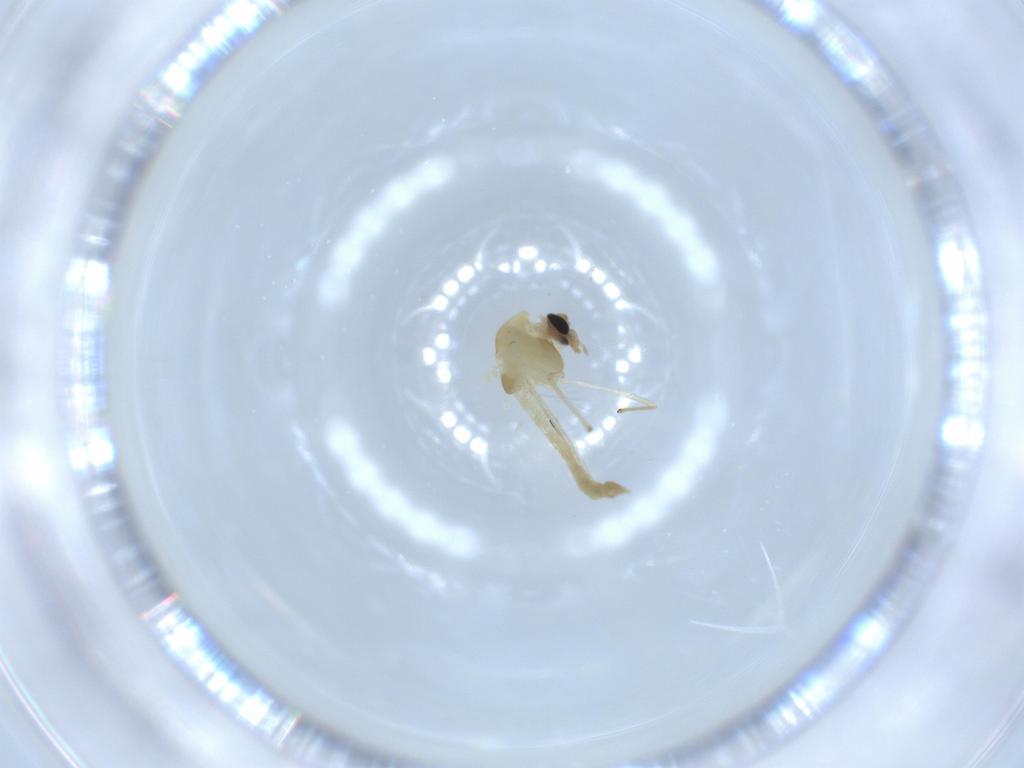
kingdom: Animalia
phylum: Arthropoda
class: Insecta
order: Diptera
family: Chironomidae
